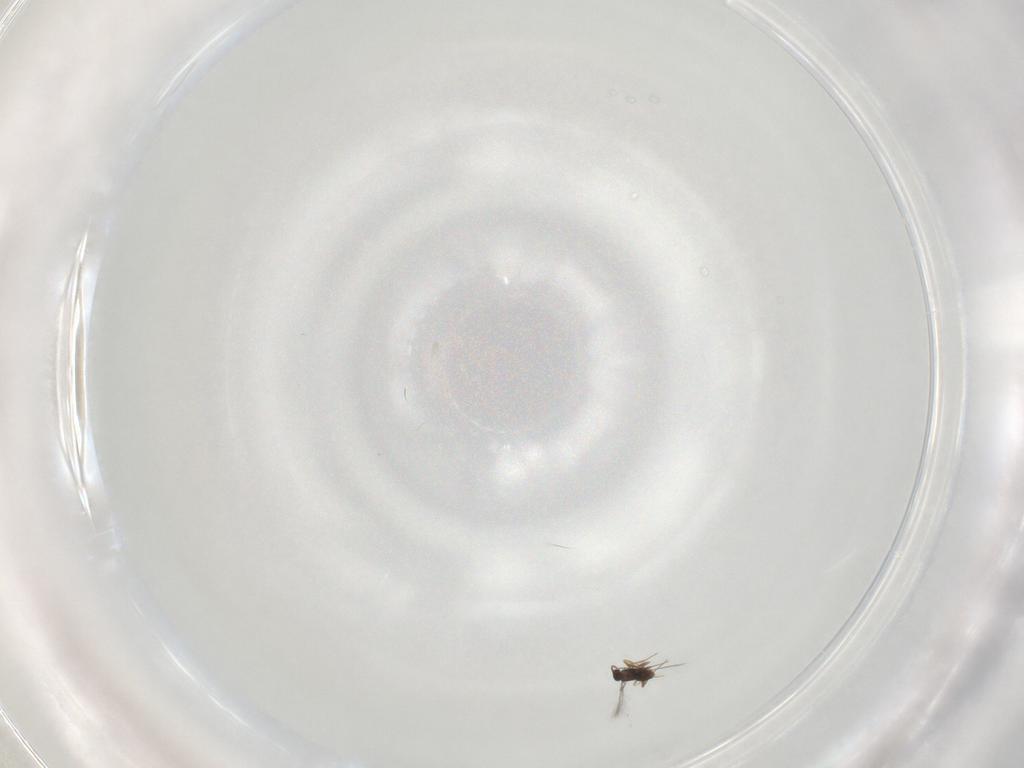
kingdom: Animalia
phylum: Arthropoda
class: Insecta
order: Hymenoptera
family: Mymaridae
